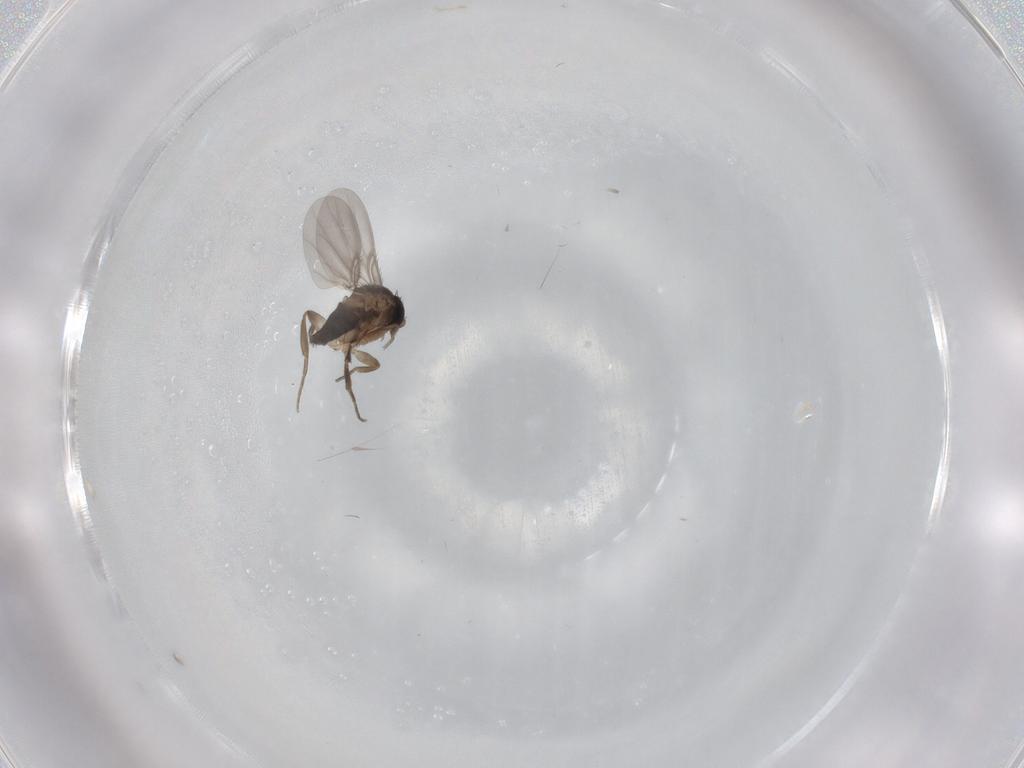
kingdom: Animalia
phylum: Arthropoda
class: Insecta
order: Diptera
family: Phoridae
